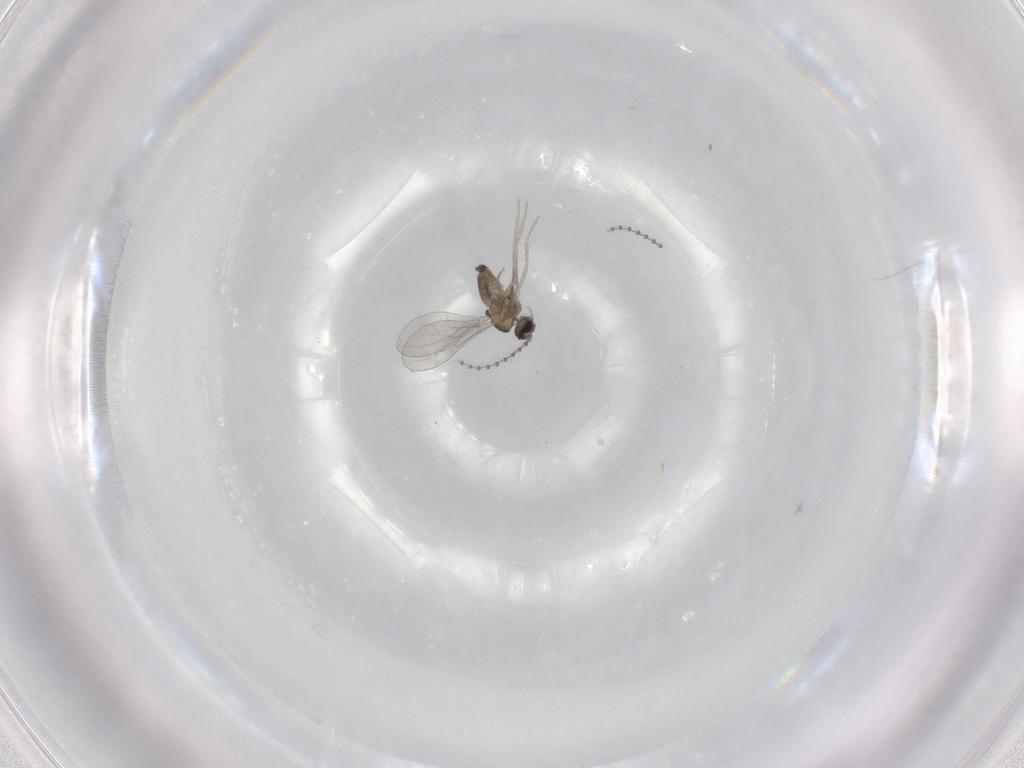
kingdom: Animalia
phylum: Arthropoda
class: Insecta
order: Diptera
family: Cecidomyiidae
